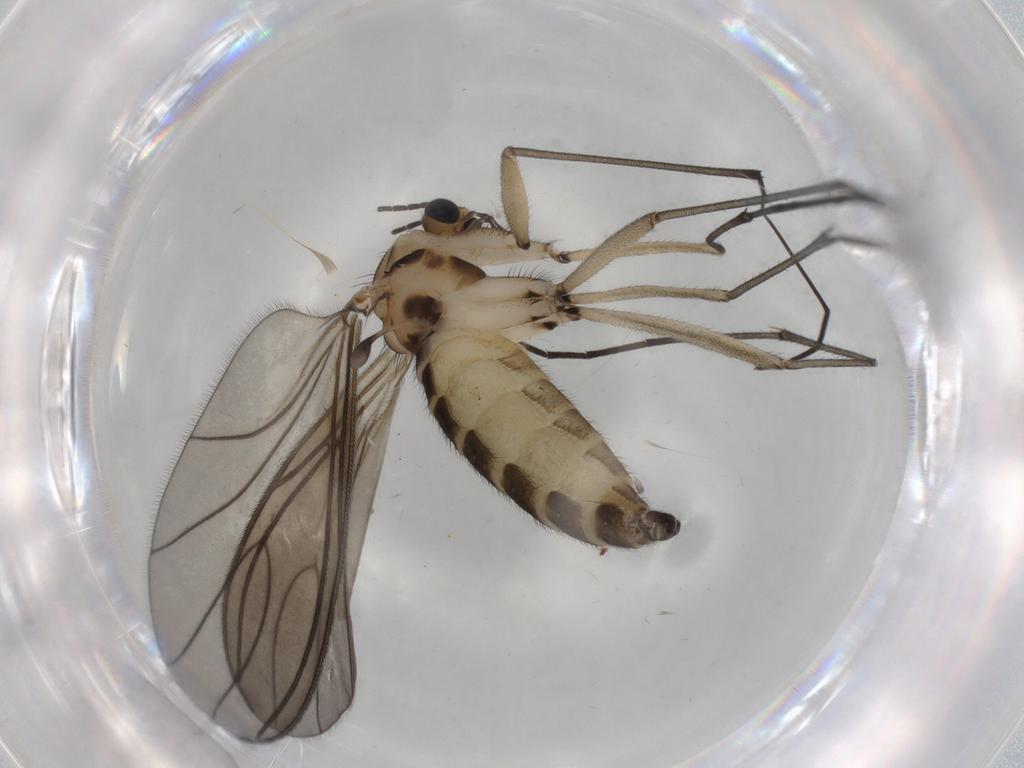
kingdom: Animalia
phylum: Arthropoda
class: Insecta
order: Diptera
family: Sciaridae
